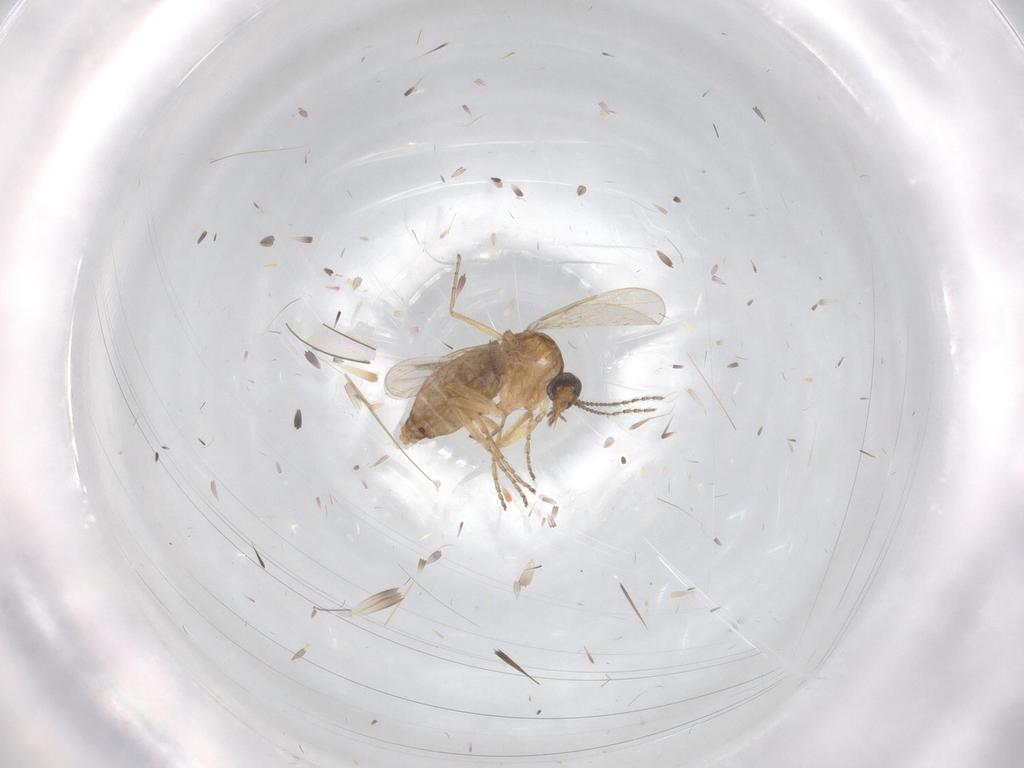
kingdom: Animalia
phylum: Arthropoda
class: Insecta
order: Diptera
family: Ceratopogonidae
